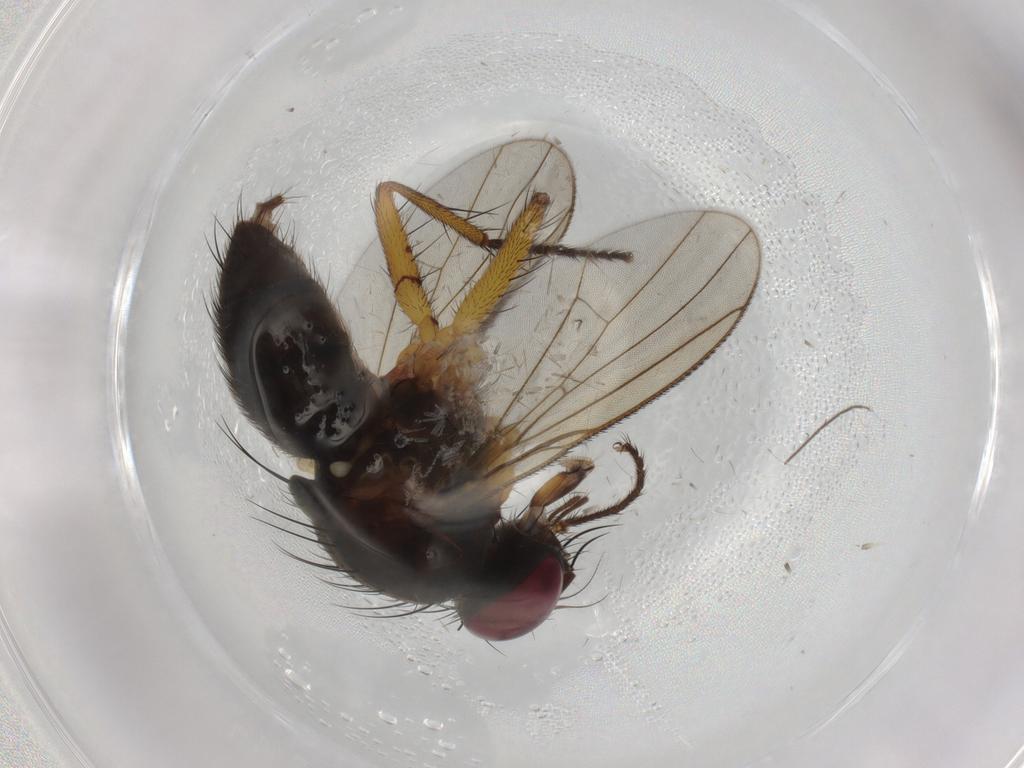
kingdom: Animalia
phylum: Arthropoda
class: Insecta
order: Diptera
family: Muscidae
